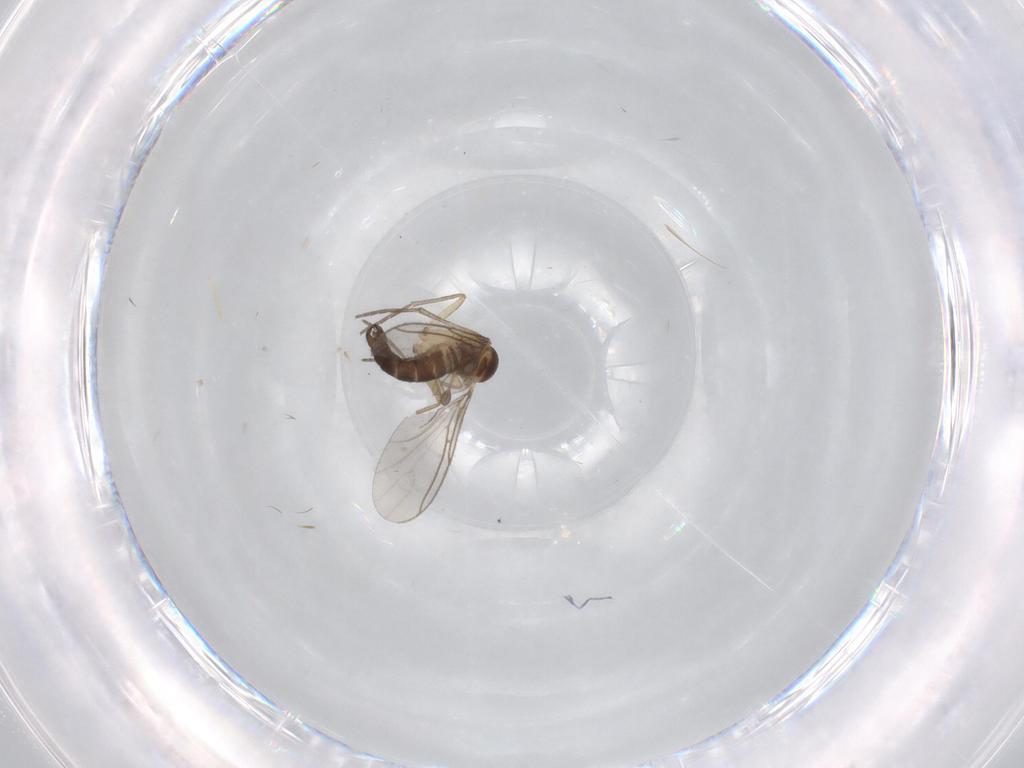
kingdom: Animalia
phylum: Arthropoda
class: Insecta
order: Diptera
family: Sciaridae
